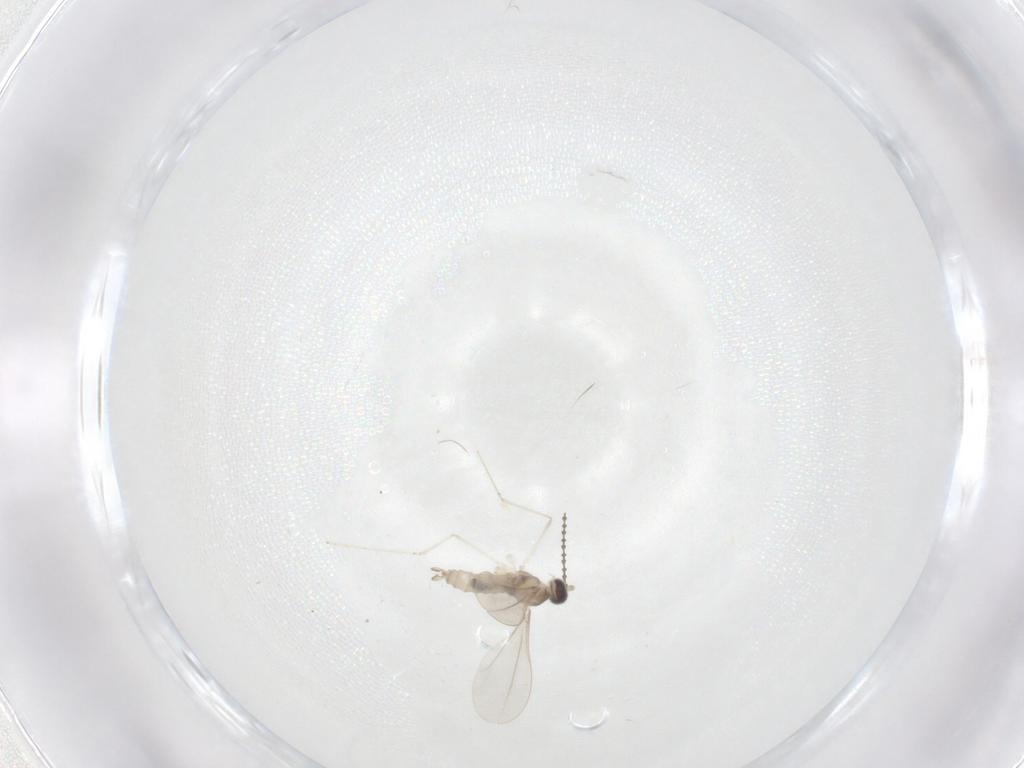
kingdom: Animalia
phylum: Arthropoda
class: Insecta
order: Diptera
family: Cecidomyiidae
